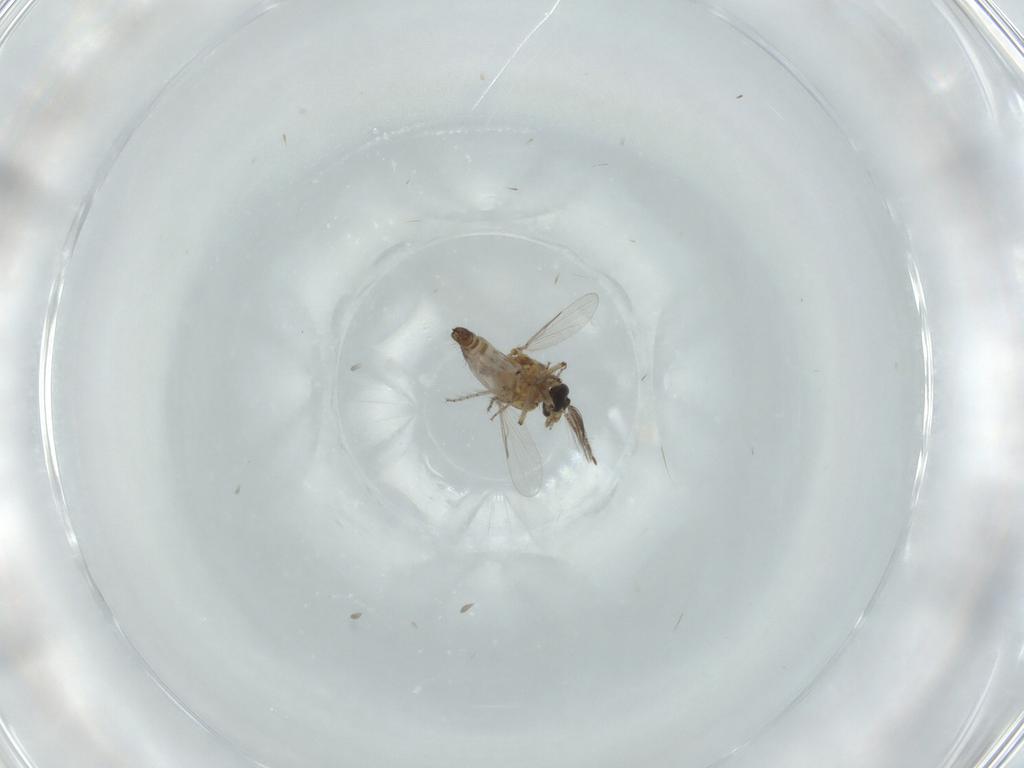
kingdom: Animalia
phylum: Arthropoda
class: Insecta
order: Diptera
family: Ceratopogonidae
